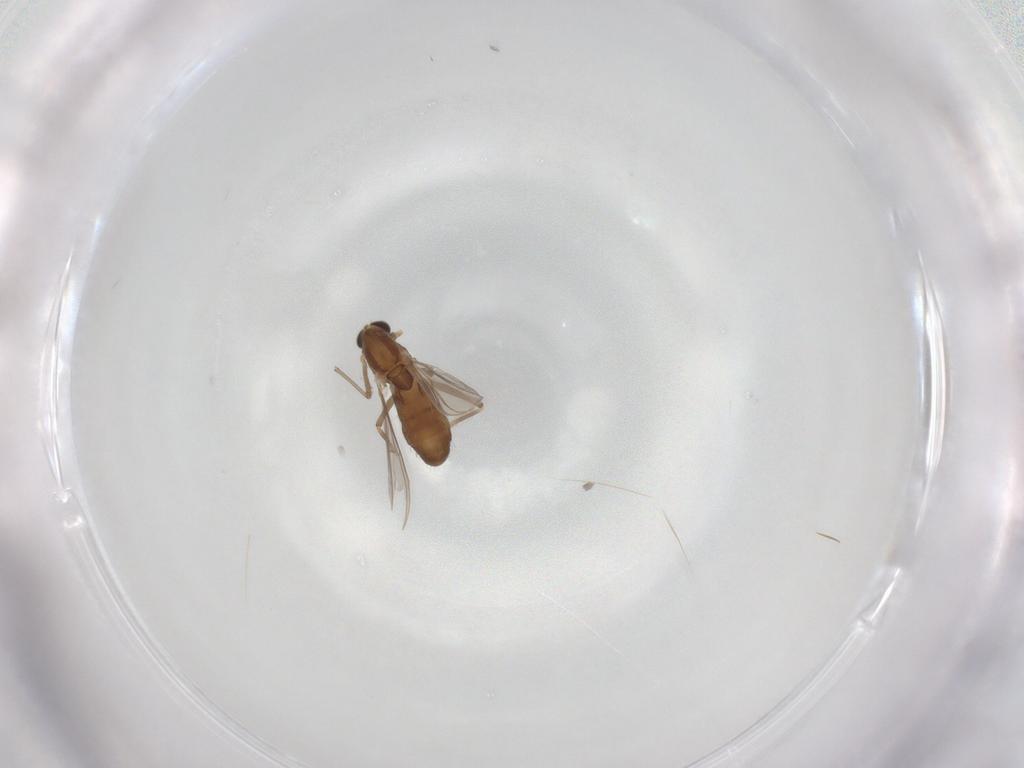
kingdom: Animalia
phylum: Arthropoda
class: Insecta
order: Diptera
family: Chironomidae
